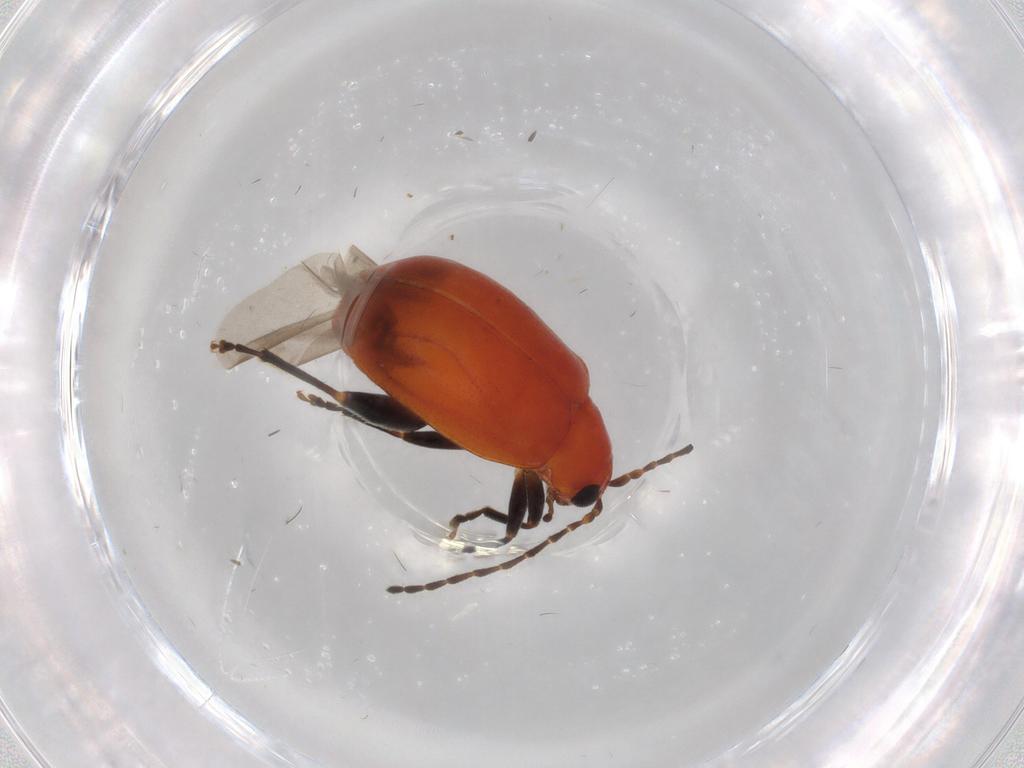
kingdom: Animalia
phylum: Arthropoda
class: Insecta
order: Coleoptera
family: Chrysomelidae
